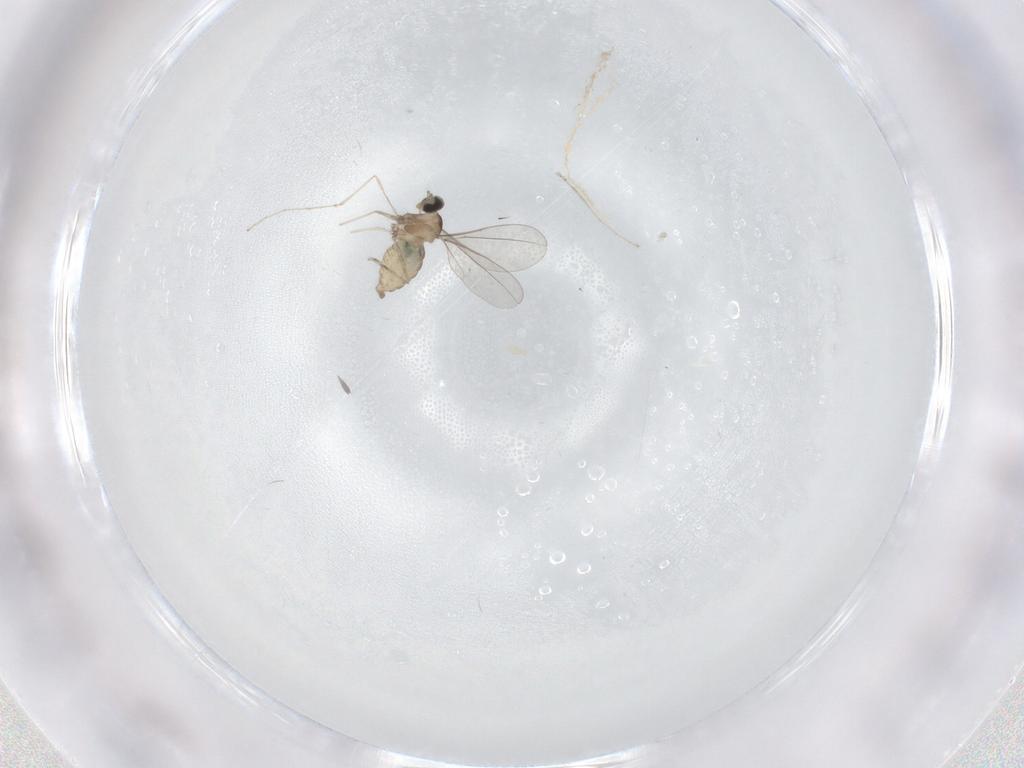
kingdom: Animalia
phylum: Arthropoda
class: Insecta
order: Diptera
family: Cecidomyiidae
